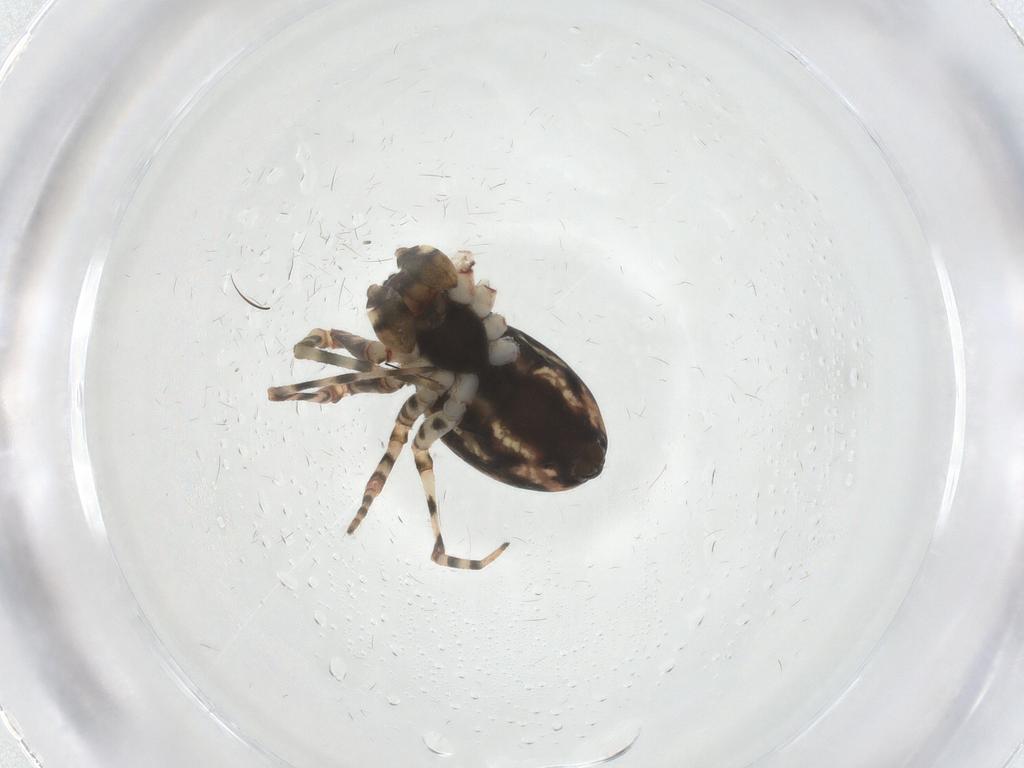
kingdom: Animalia
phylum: Arthropoda
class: Arachnida
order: Araneae
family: Linyphiidae
